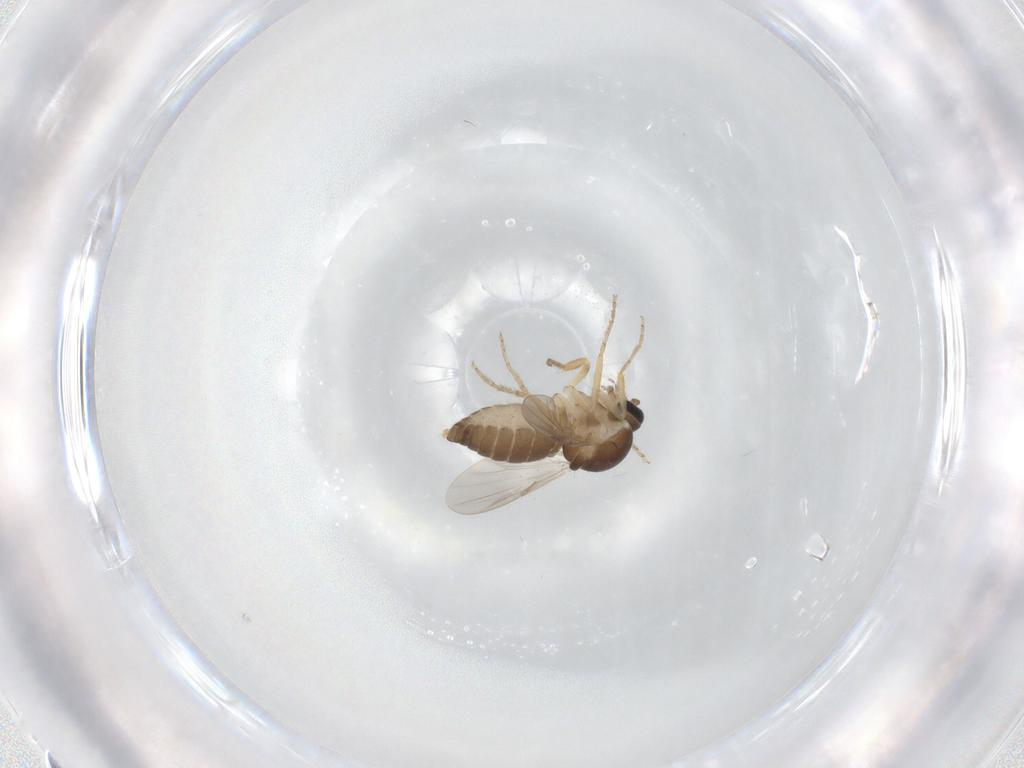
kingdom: Animalia
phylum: Arthropoda
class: Insecta
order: Diptera
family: Ceratopogonidae
